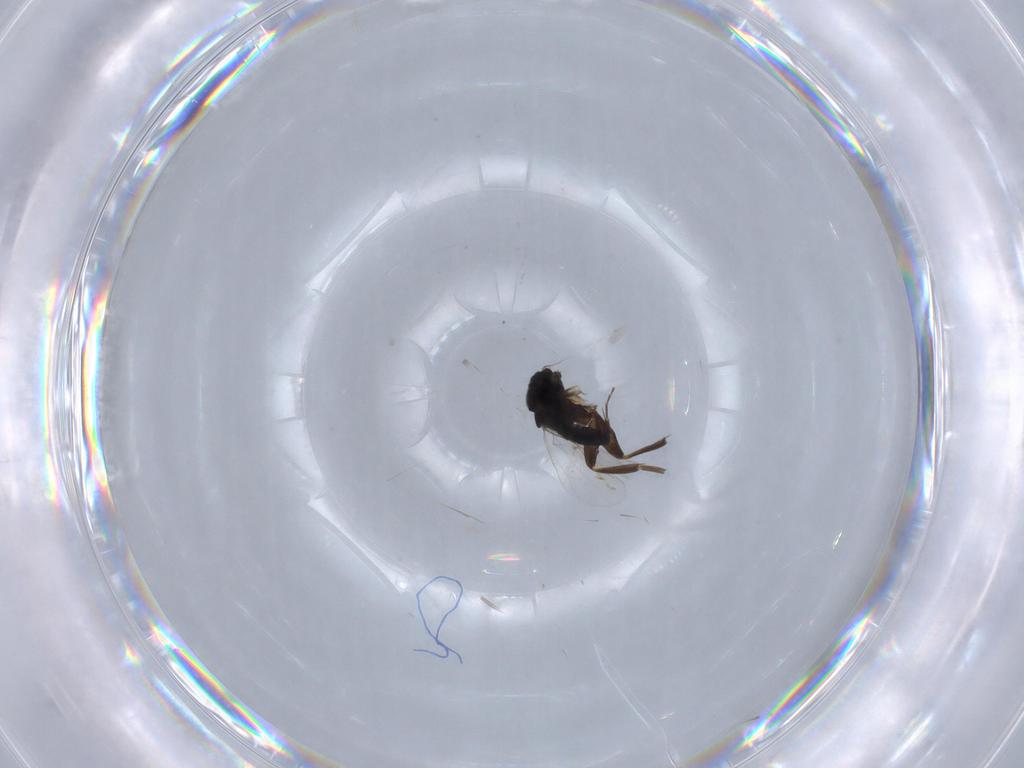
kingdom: Animalia
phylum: Arthropoda
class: Insecta
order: Diptera
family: Phoridae
